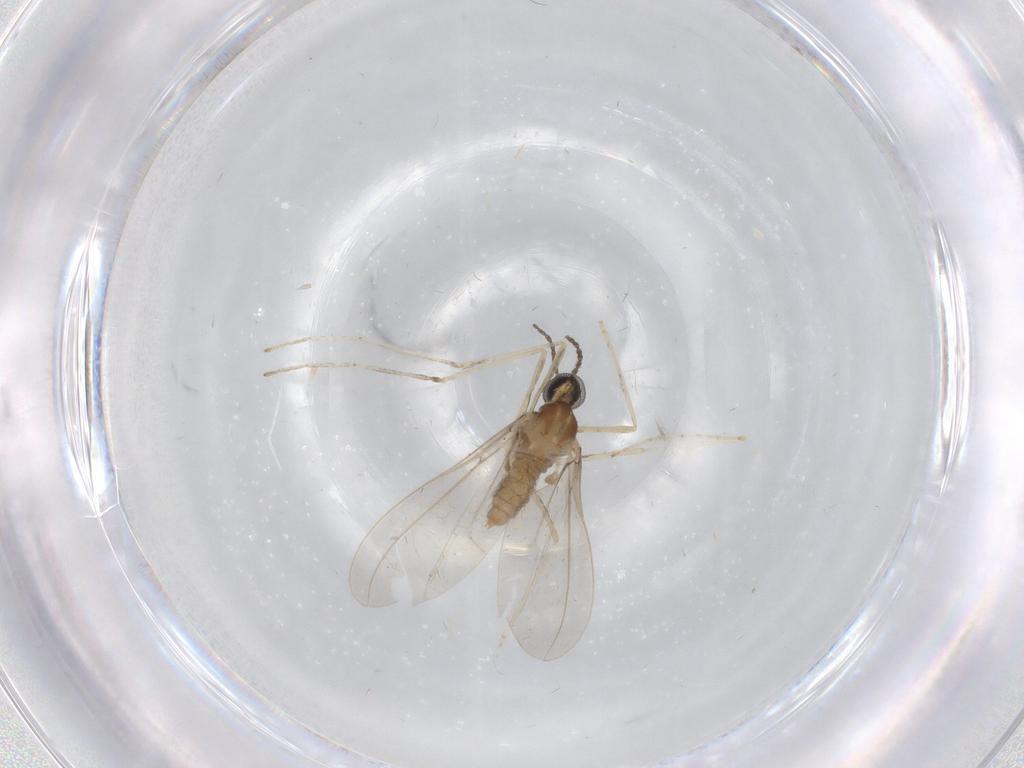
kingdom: Animalia
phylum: Arthropoda
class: Insecta
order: Diptera
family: Cecidomyiidae
